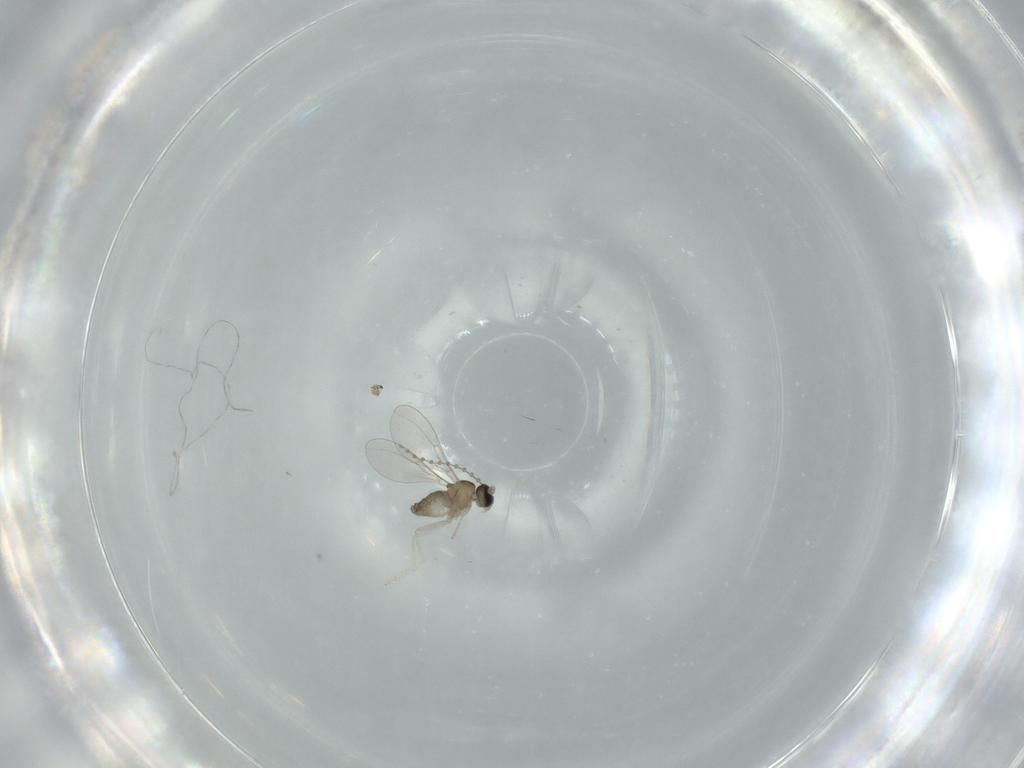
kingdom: Animalia
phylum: Arthropoda
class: Insecta
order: Diptera
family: Cecidomyiidae
